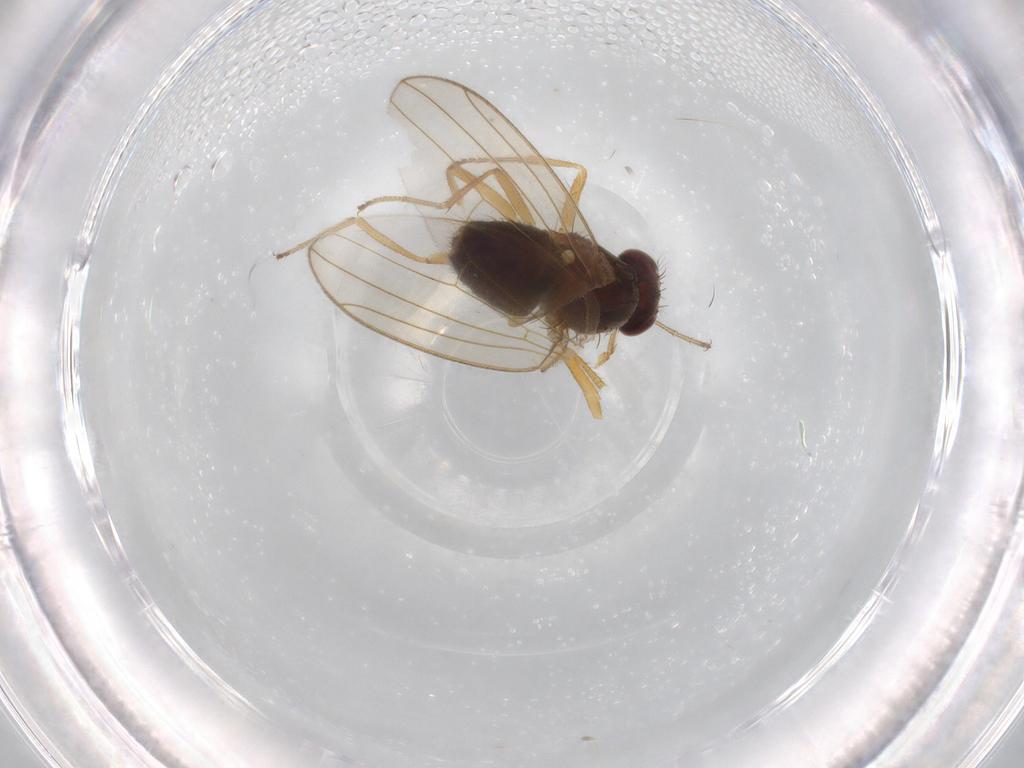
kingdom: Animalia
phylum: Arthropoda
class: Insecta
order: Diptera
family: Drosophilidae
